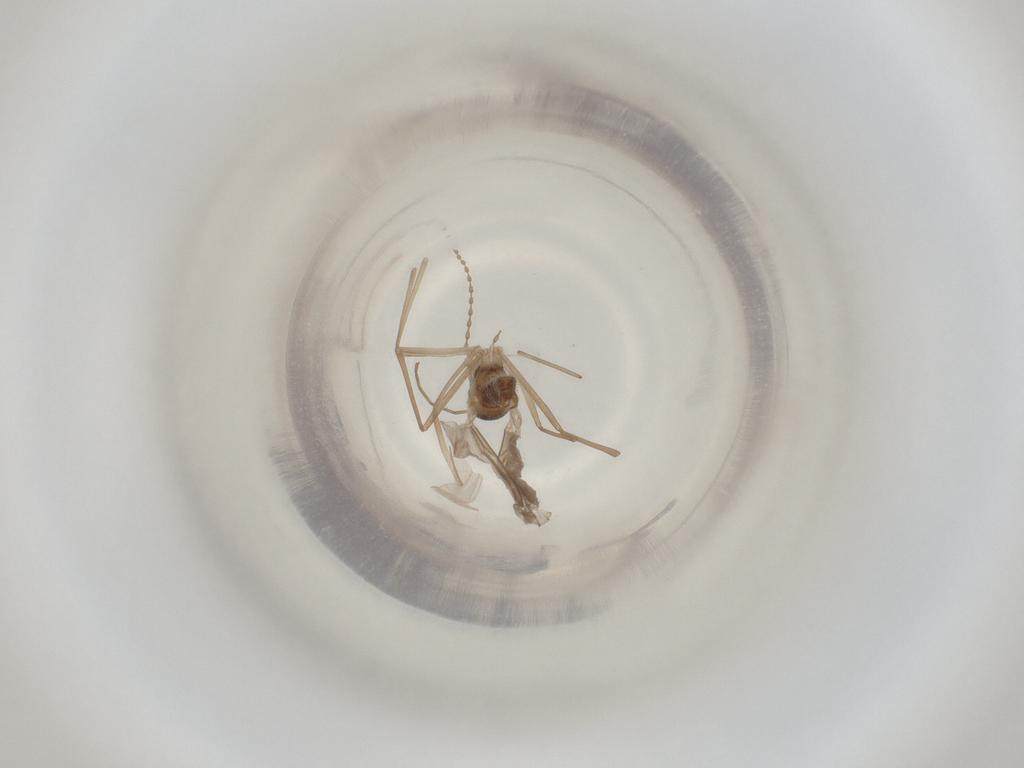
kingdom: Animalia
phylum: Arthropoda
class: Insecta
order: Diptera
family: Cecidomyiidae
